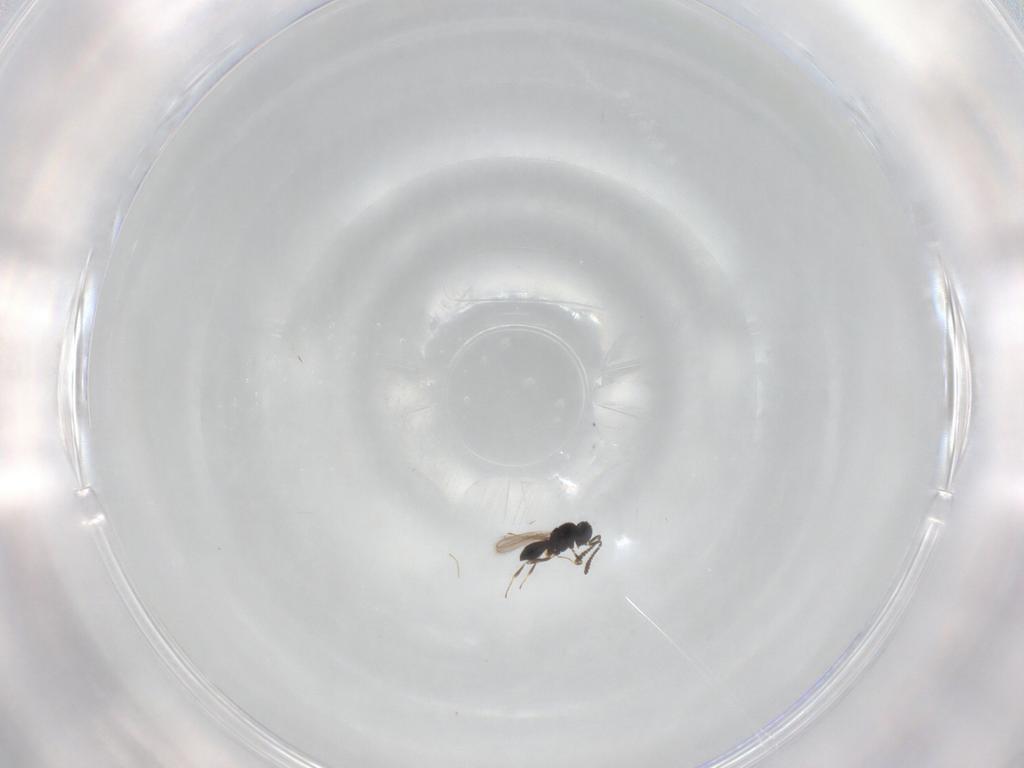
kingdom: Animalia
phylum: Arthropoda
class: Insecta
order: Hymenoptera
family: Scelionidae
